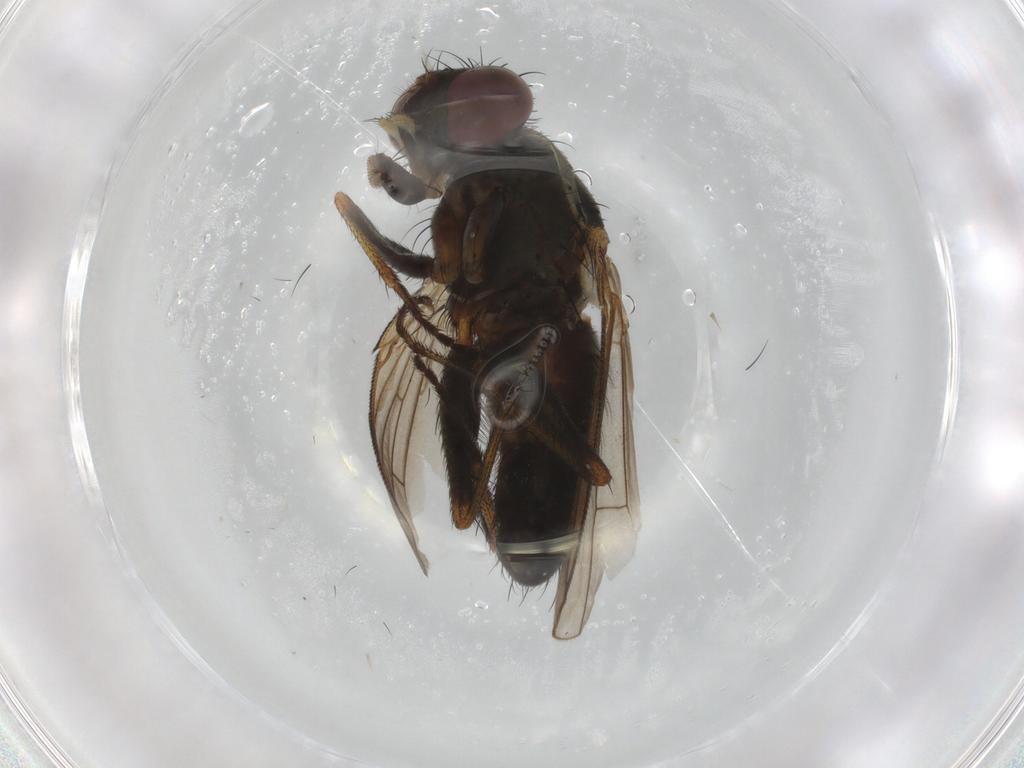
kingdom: Animalia
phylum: Arthropoda
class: Insecta
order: Diptera
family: Muscidae
